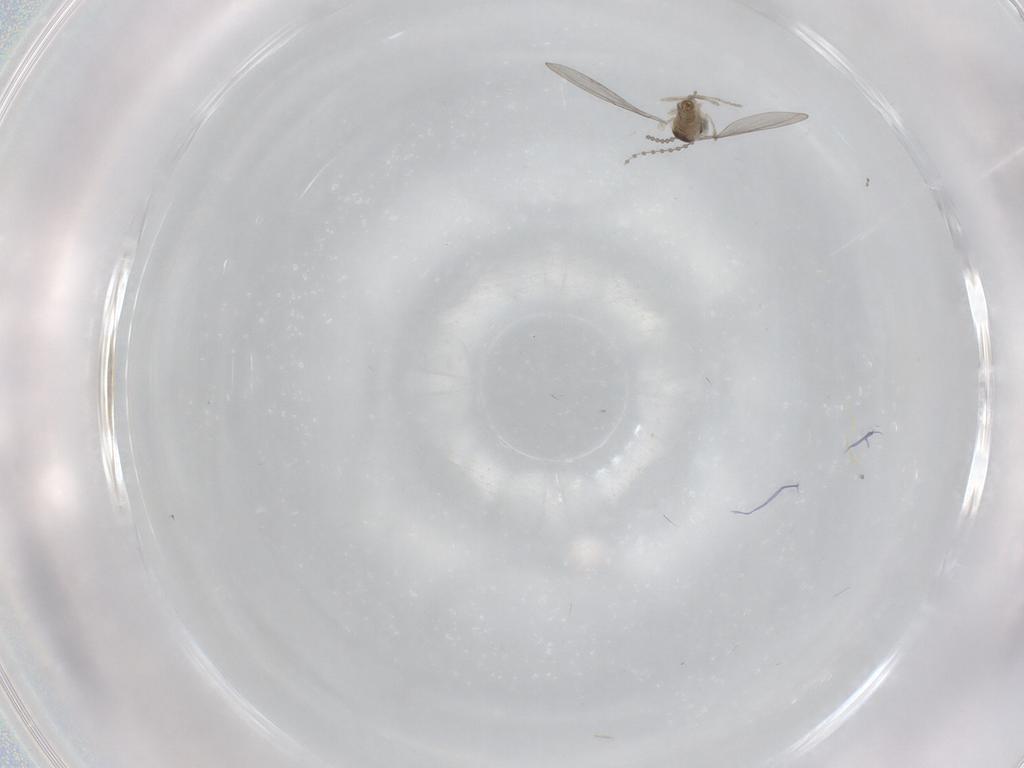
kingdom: Animalia
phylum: Arthropoda
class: Insecta
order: Diptera
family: Cecidomyiidae
